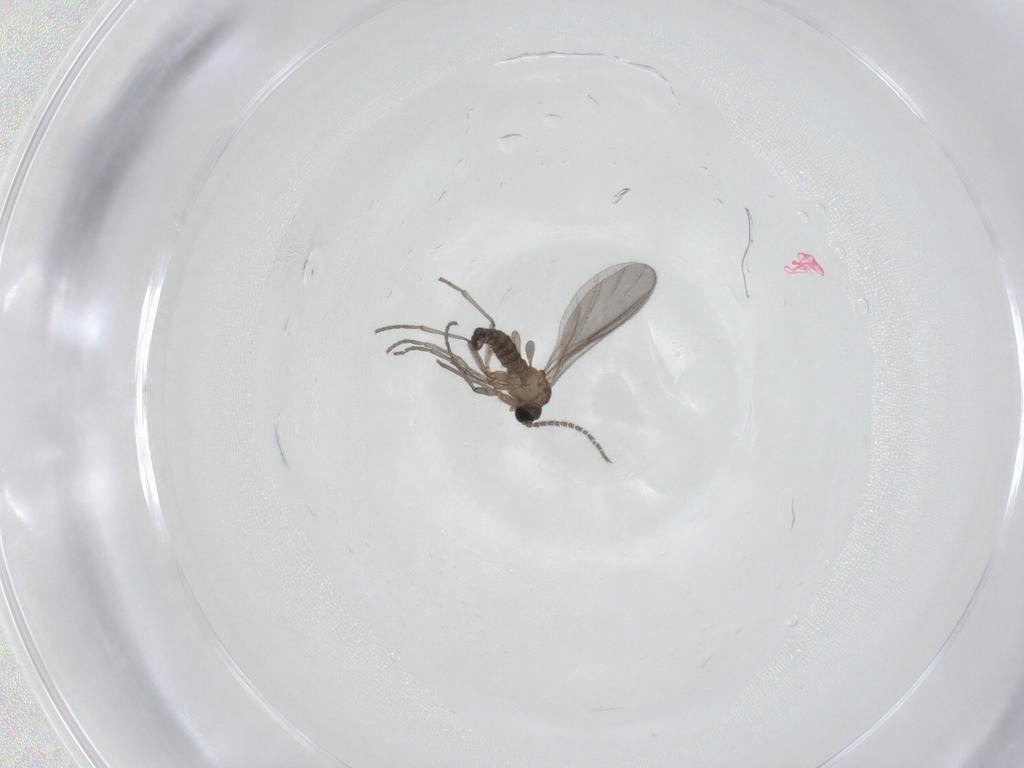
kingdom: Animalia
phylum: Arthropoda
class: Insecta
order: Diptera
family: Sciaridae
